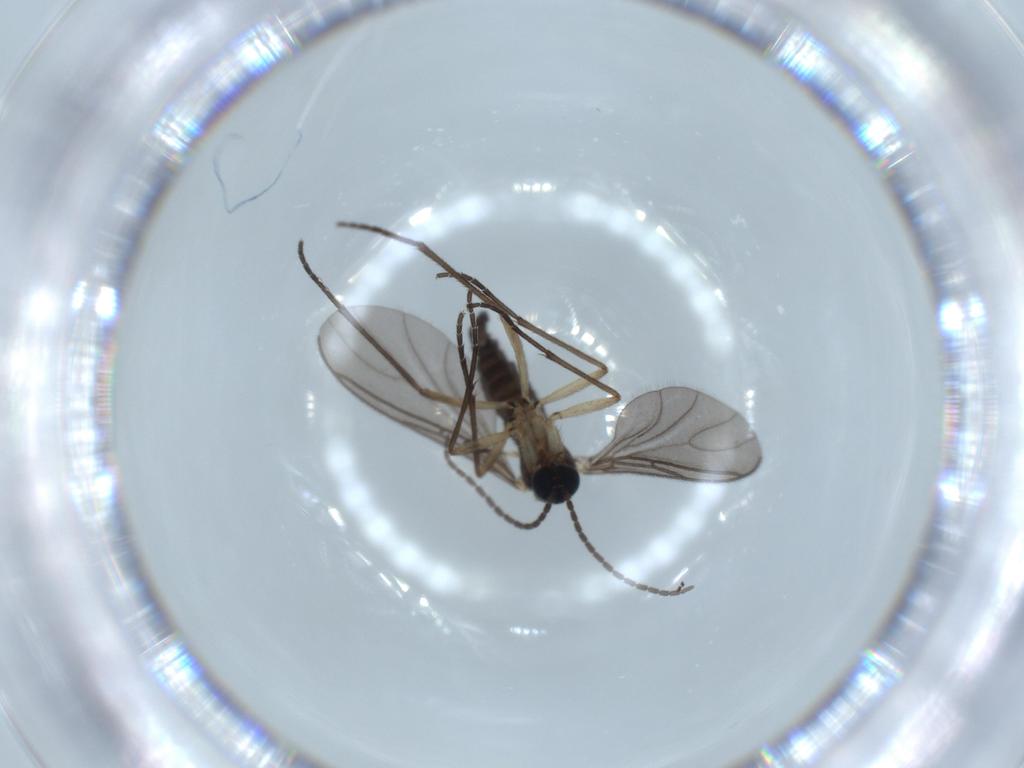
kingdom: Animalia
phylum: Arthropoda
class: Insecta
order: Diptera
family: Sciaridae
